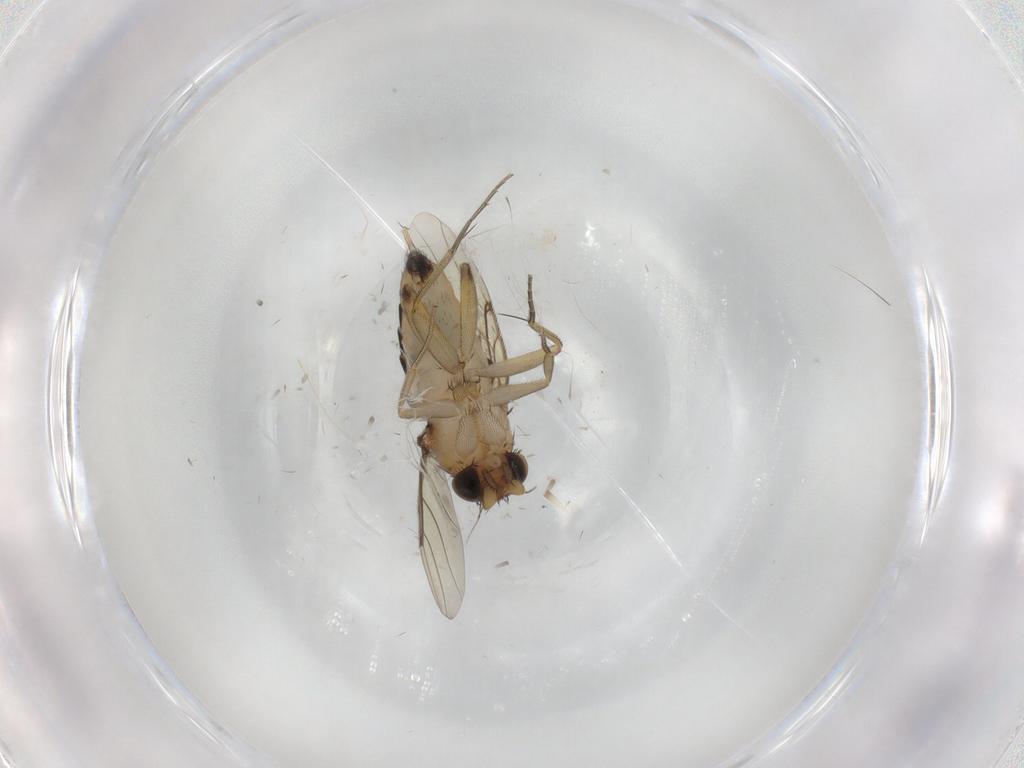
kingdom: Animalia
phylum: Arthropoda
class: Insecta
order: Diptera
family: Phoridae
